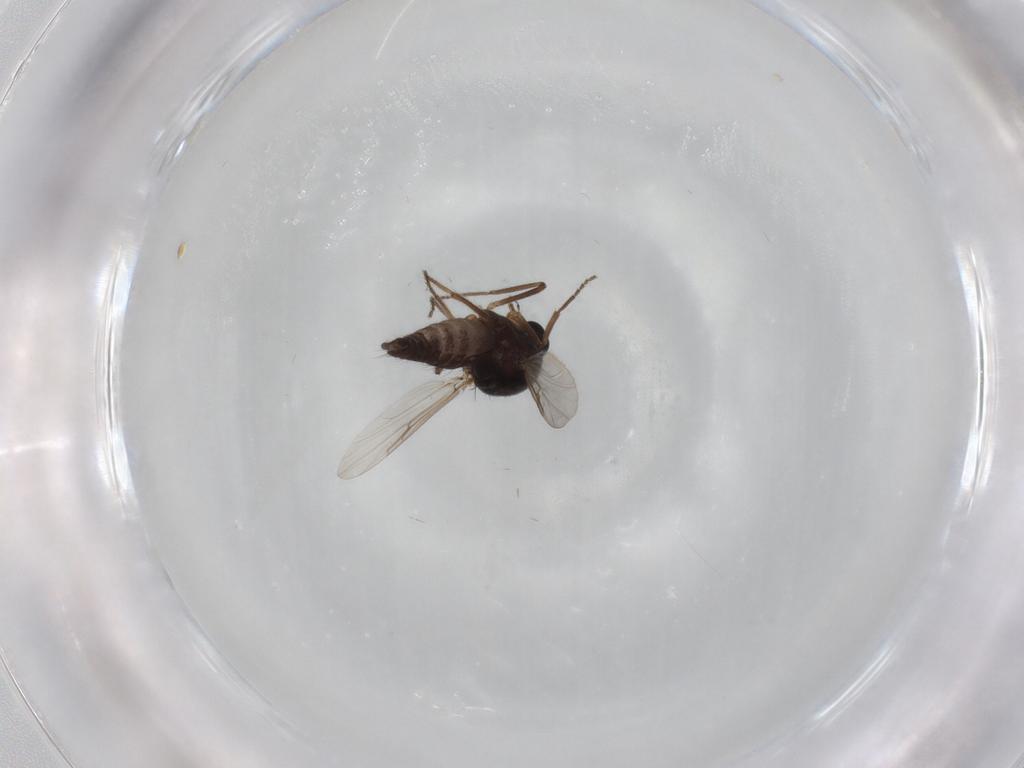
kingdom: Animalia
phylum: Arthropoda
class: Insecta
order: Diptera
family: Ceratopogonidae
